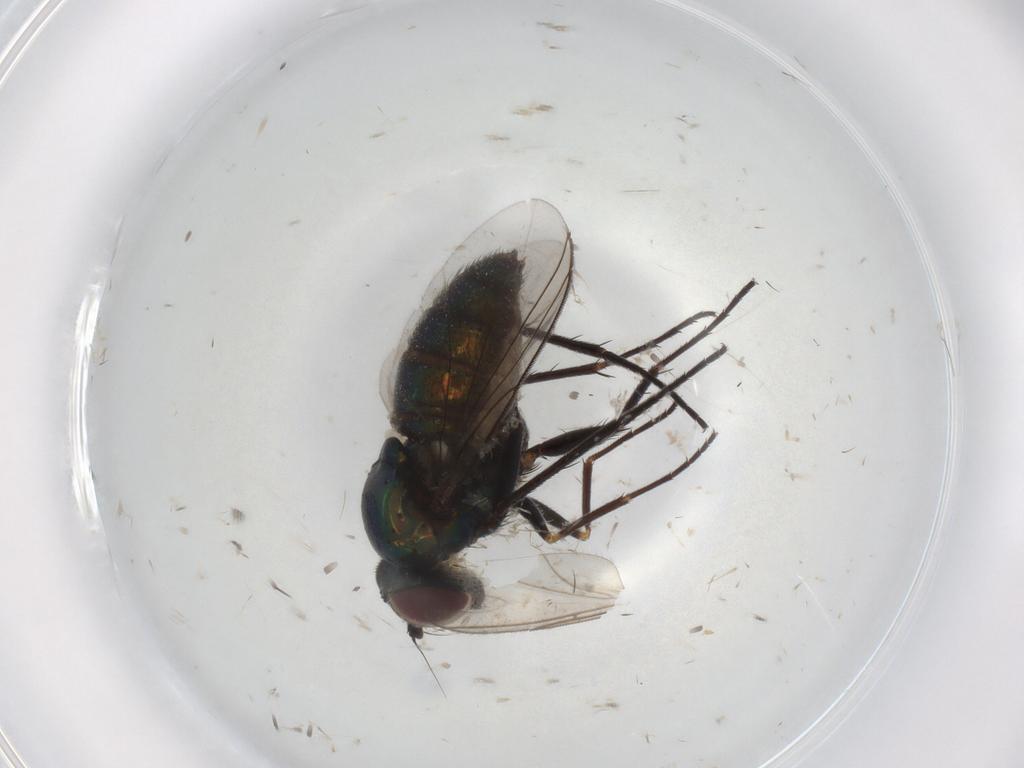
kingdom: Animalia
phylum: Arthropoda
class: Insecta
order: Diptera
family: Dolichopodidae
